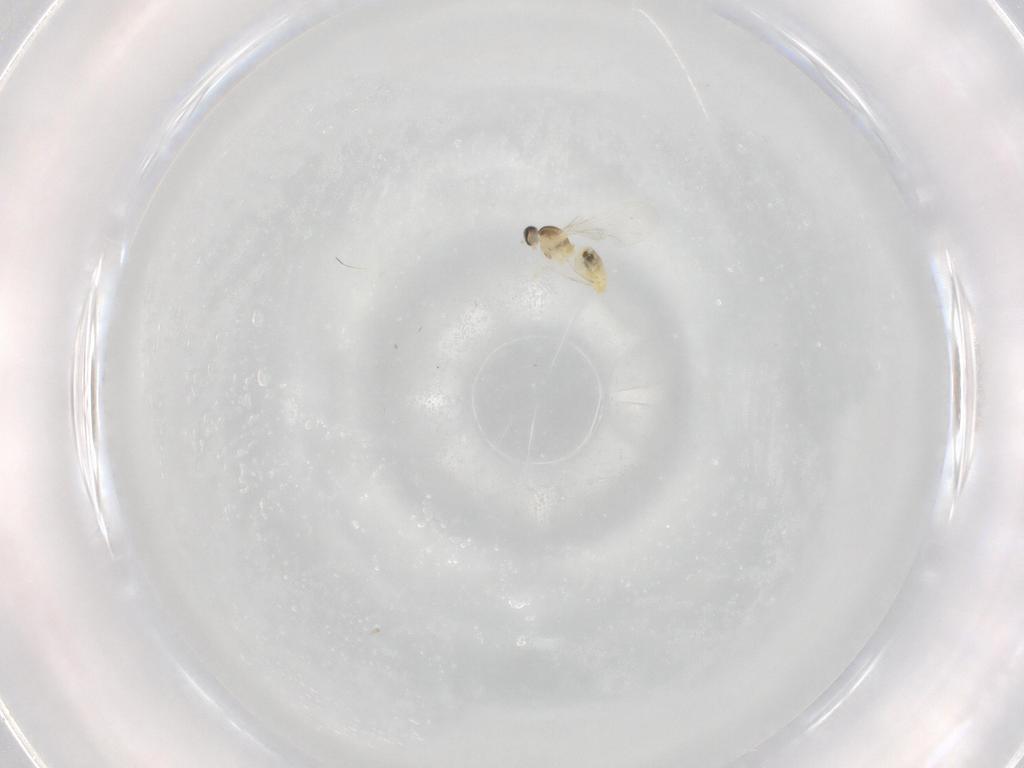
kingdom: Animalia
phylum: Arthropoda
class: Insecta
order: Diptera
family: Cecidomyiidae
